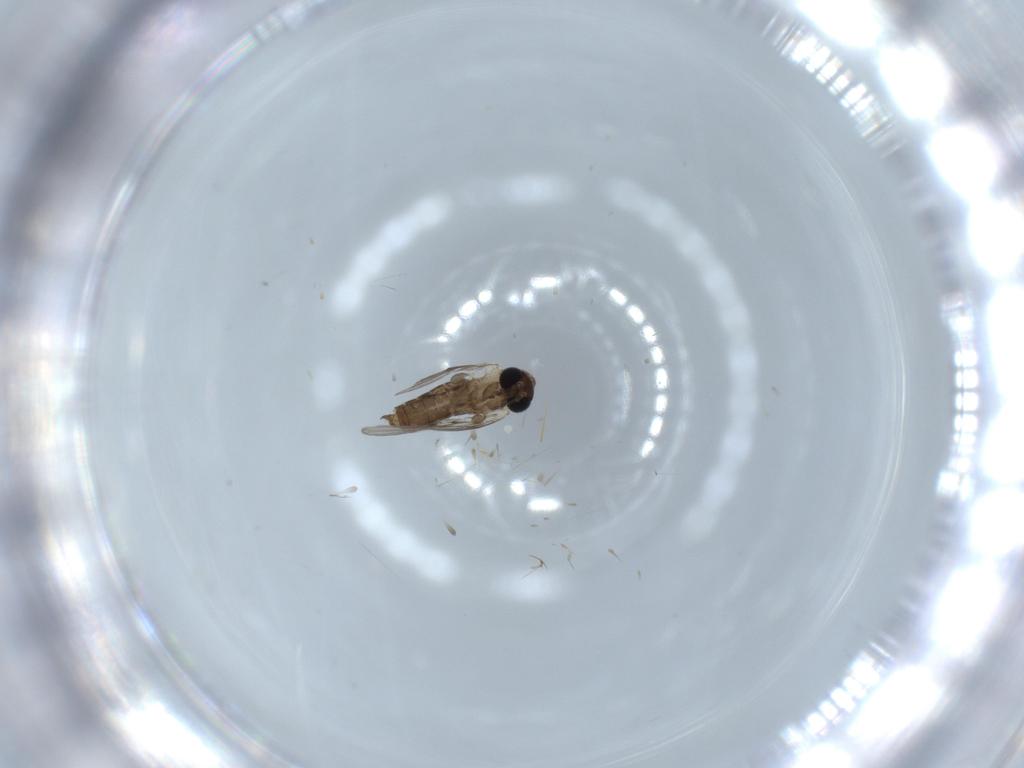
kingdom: Animalia
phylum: Arthropoda
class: Insecta
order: Diptera
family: Psychodidae
